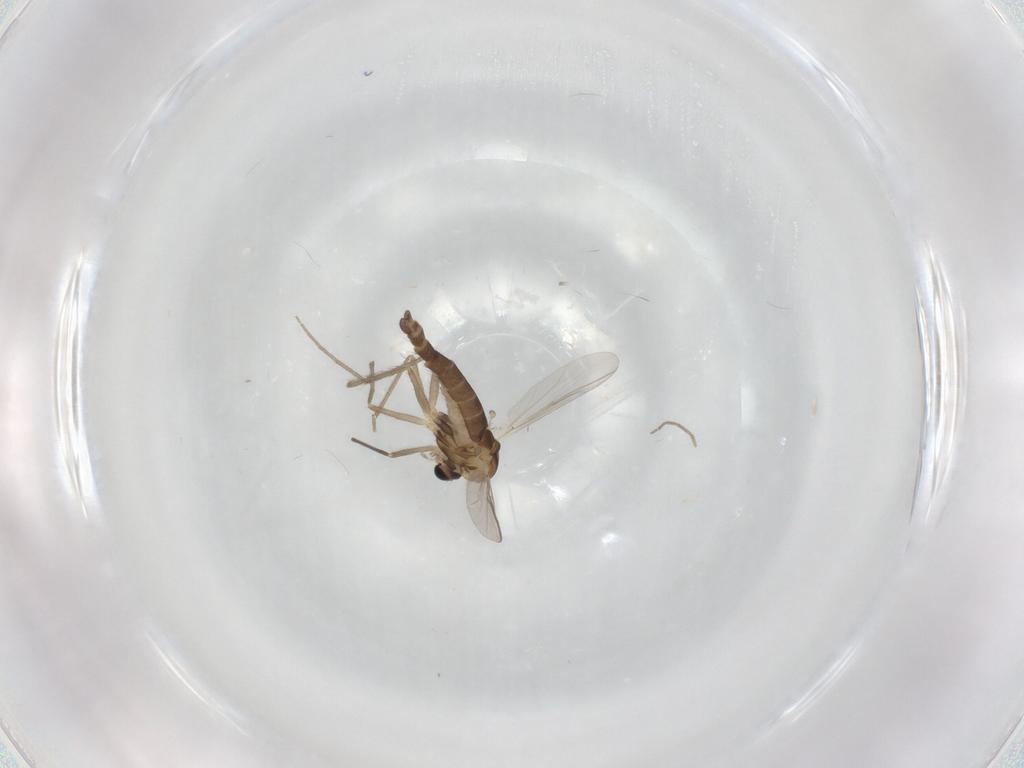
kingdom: Animalia
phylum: Arthropoda
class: Insecta
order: Diptera
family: Chironomidae
